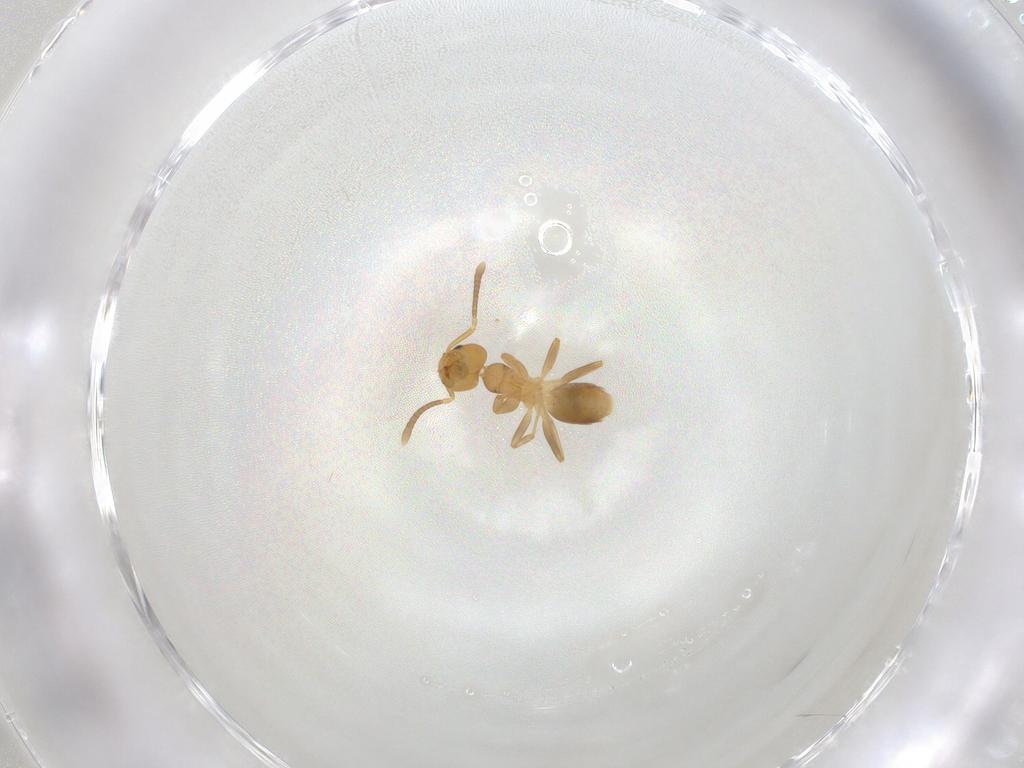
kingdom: Animalia
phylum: Arthropoda
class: Insecta
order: Hymenoptera
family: Formicidae
